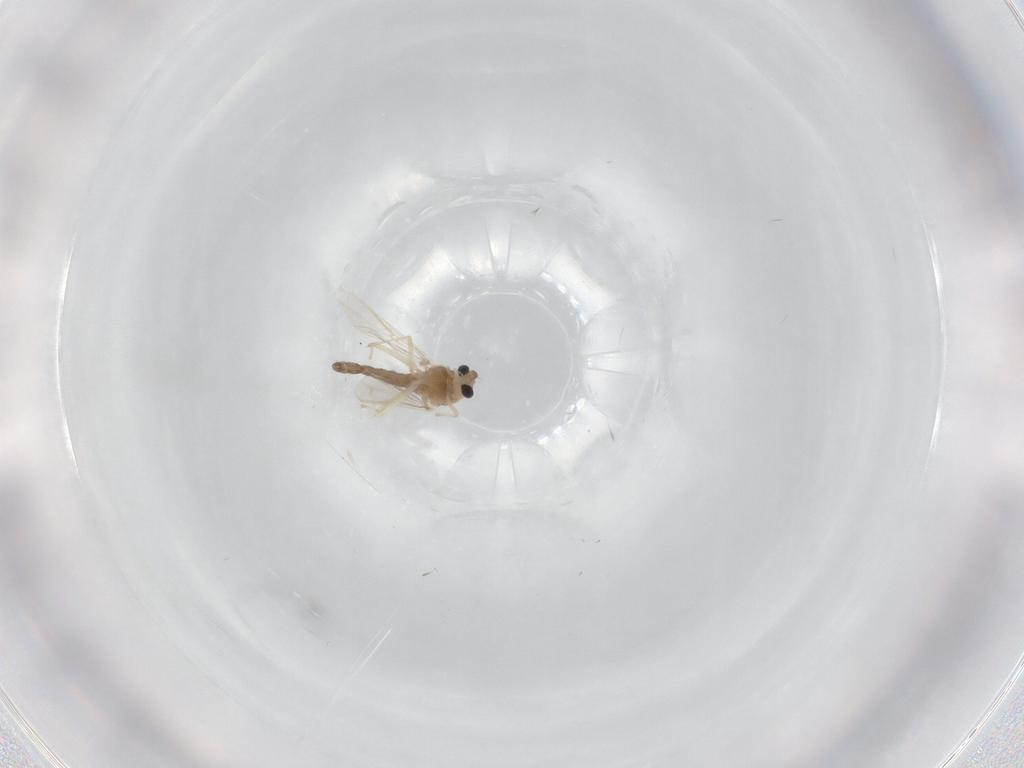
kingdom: Animalia
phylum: Arthropoda
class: Insecta
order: Diptera
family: Chironomidae
